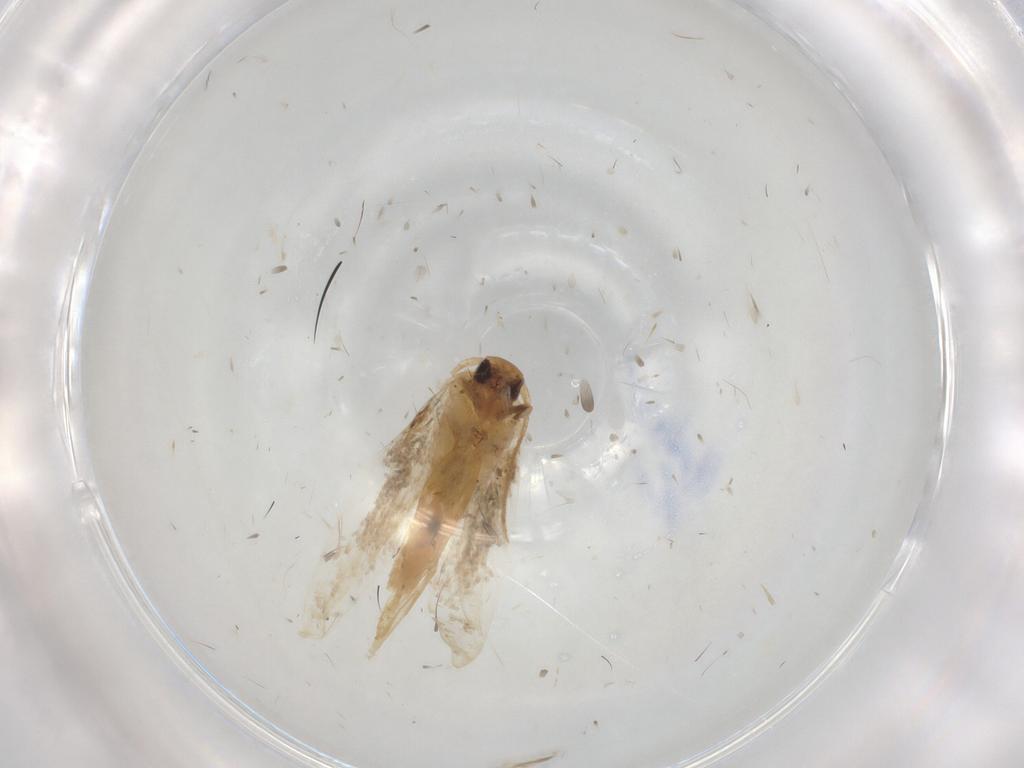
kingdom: Animalia
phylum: Arthropoda
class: Insecta
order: Lepidoptera
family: Elachistidae
